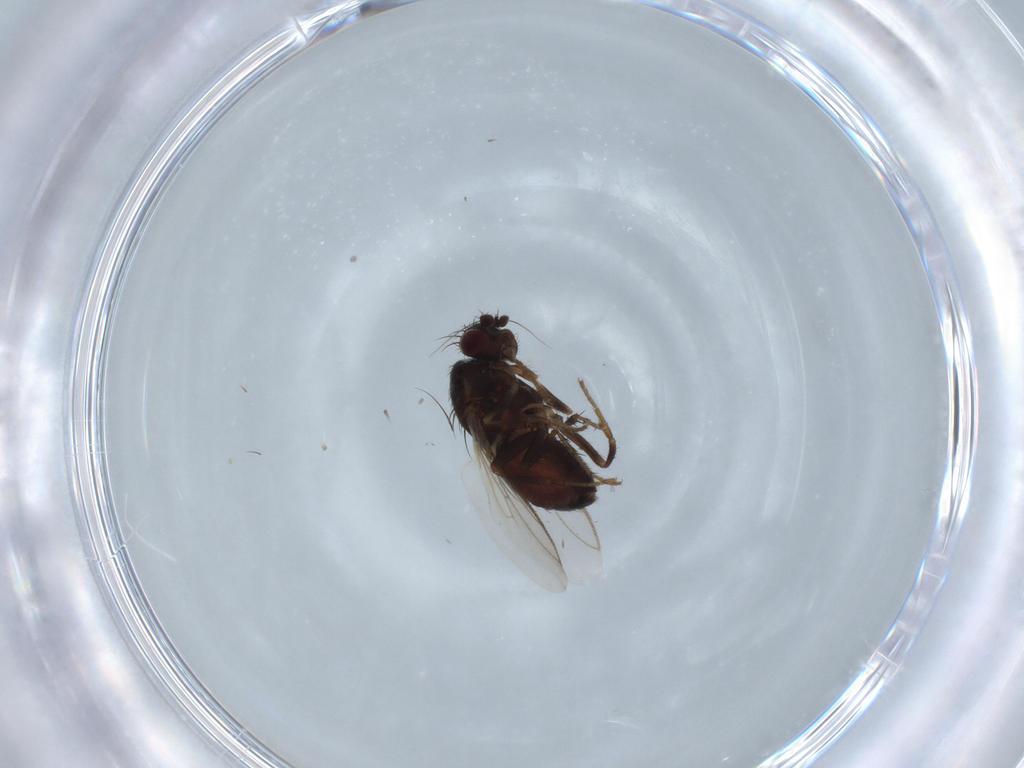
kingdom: Animalia
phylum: Arthropoda
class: Insecta
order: Diptera
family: Sphaeroceridae
